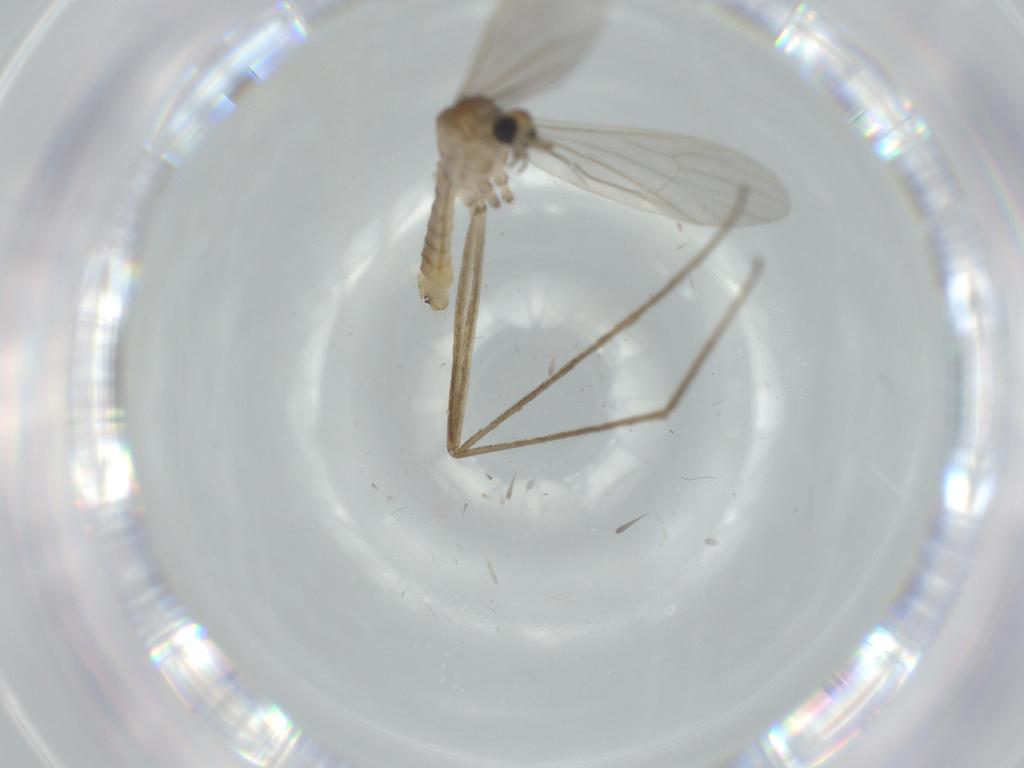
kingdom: Animalia
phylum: Arthropoda
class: Insecta
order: Diptera
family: Limoniidae
